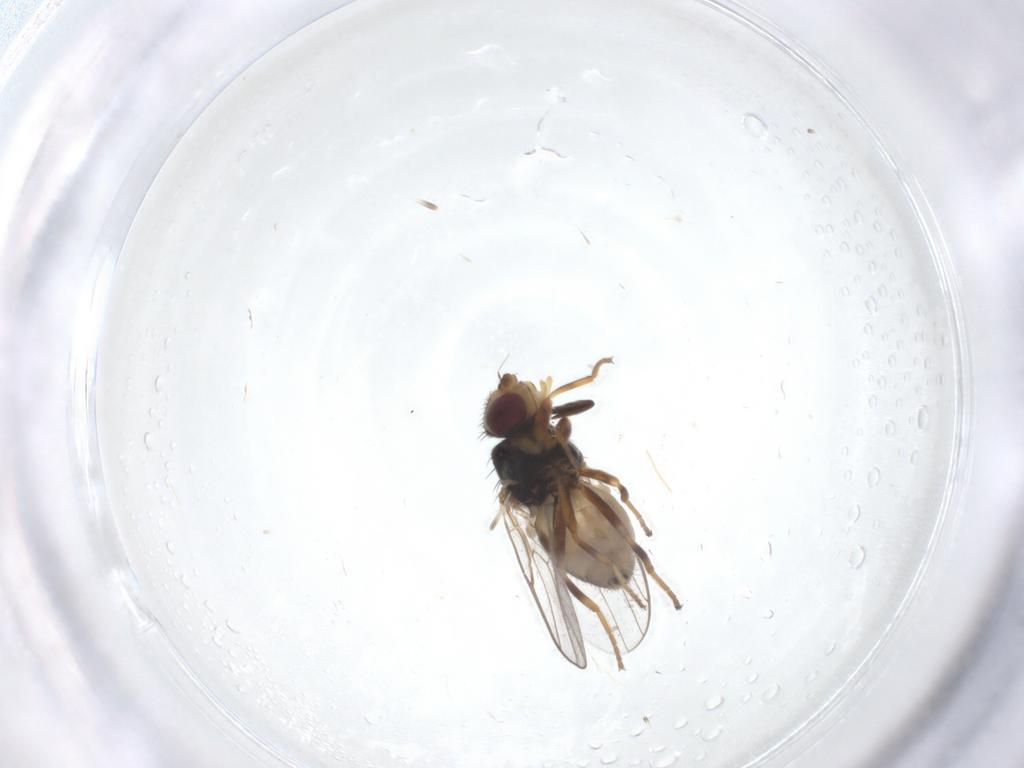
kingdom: Animalia
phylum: Arthropoda
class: Insecta
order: Diptera
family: Chloropidae
